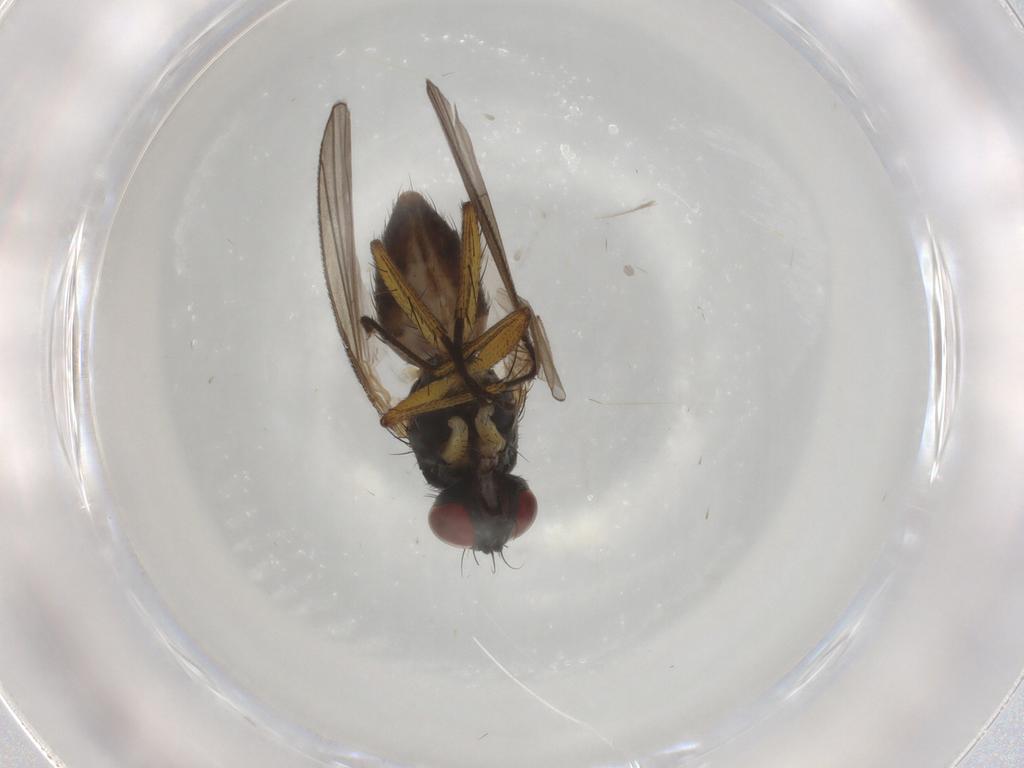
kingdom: Animalia
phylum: Arthropoda
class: Insecta
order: Diptera
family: Muscidae
